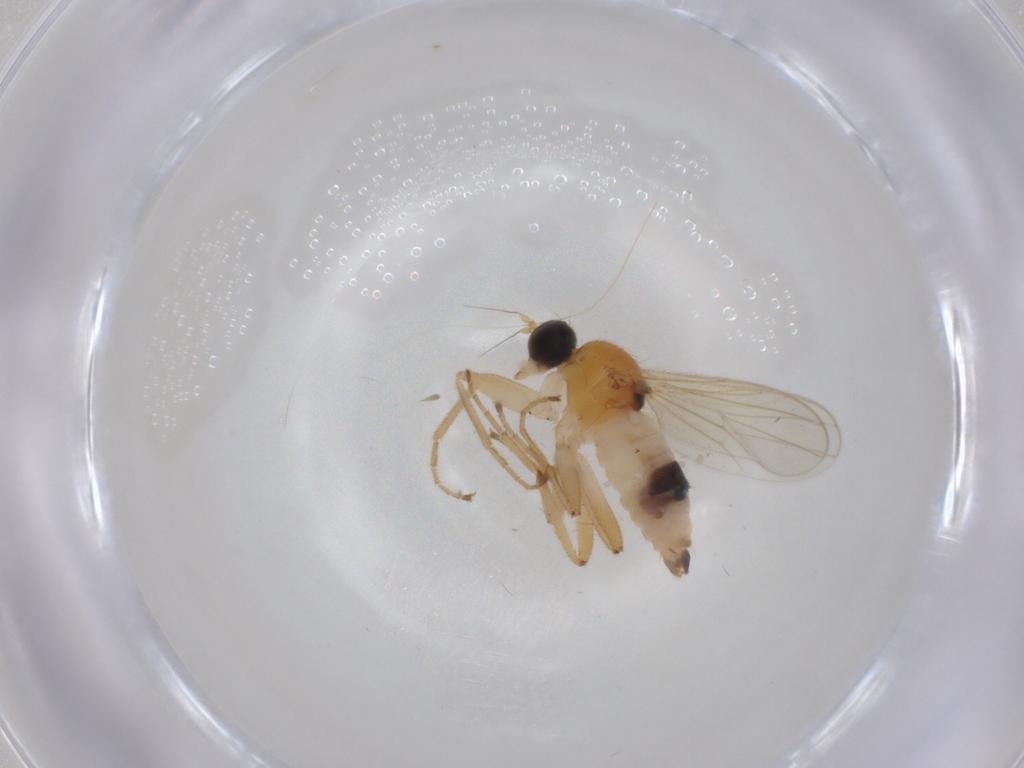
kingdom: Animalia
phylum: Arthropoda
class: Insecta
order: Diptera
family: Hybotidae
